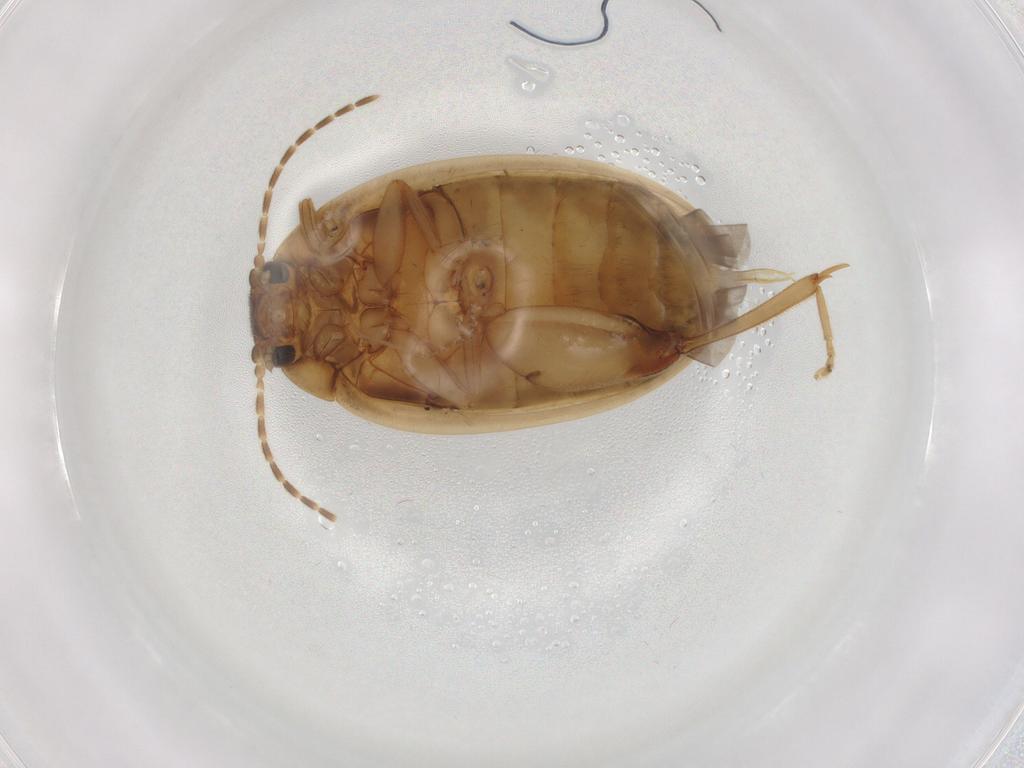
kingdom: Animalia
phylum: Arthropoda
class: Insecta
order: Coleoptera
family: Scirtidae
